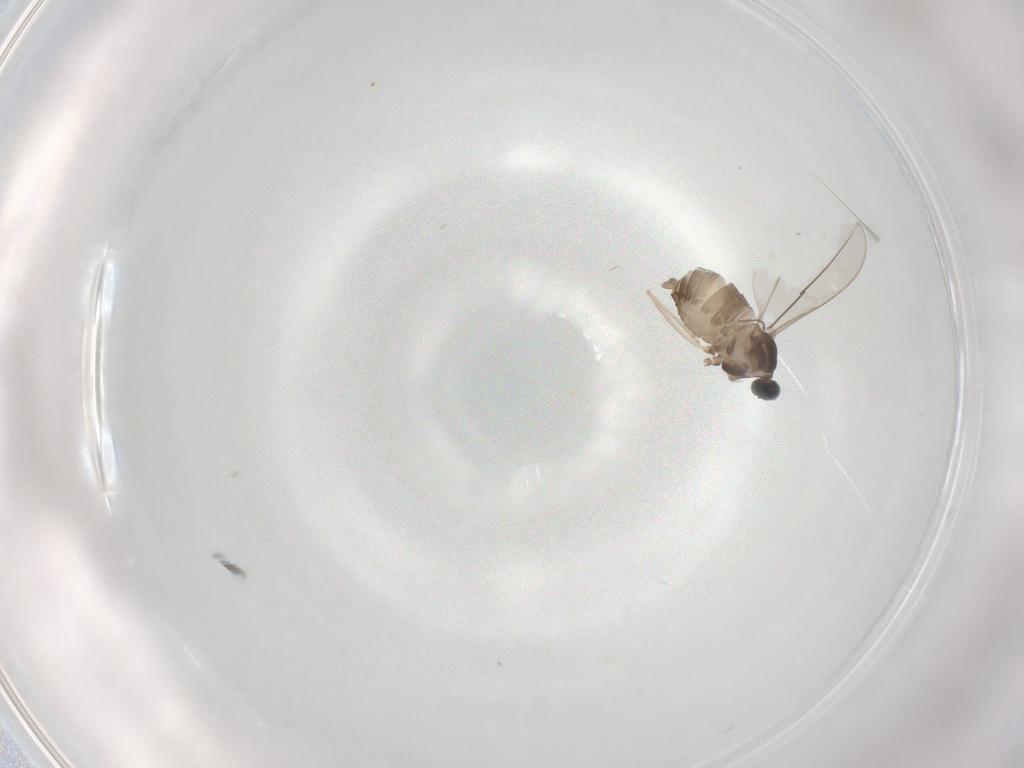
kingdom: Animalia
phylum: Arthropoda
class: Insecta
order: Diptera
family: Cecidomyiidae
